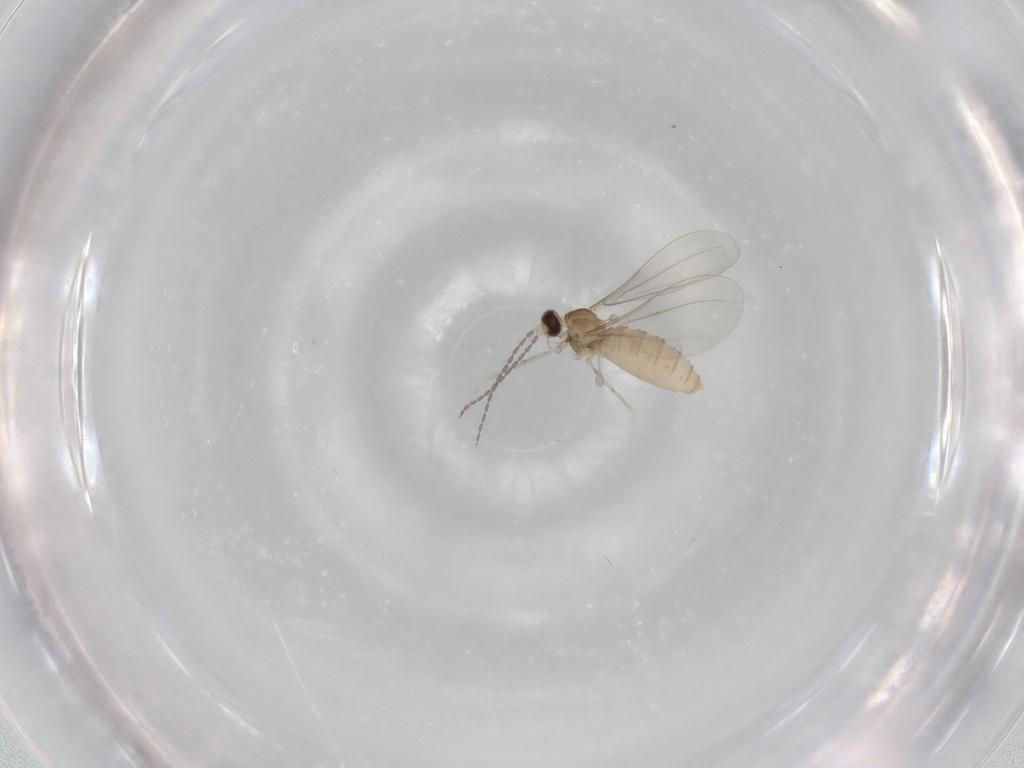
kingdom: Animalia
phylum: Arthropoda
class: Insecta
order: Diptera
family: Cecidomyiidae
